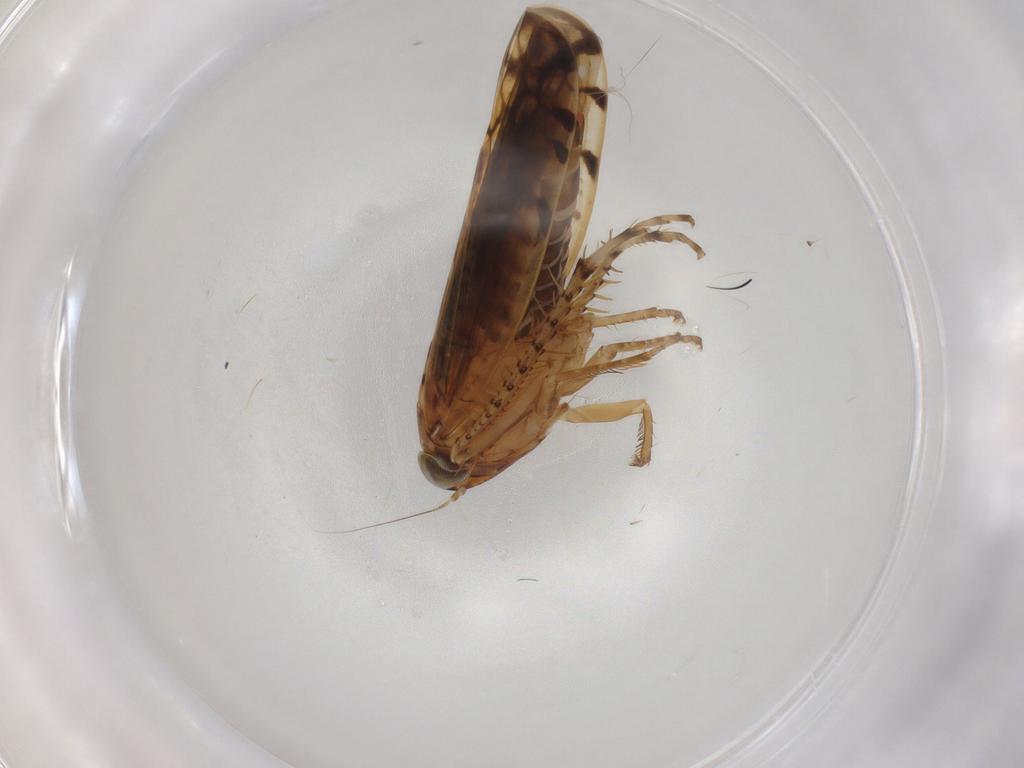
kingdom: Animalia
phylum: Arthropoda
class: Insecta
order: Hemiptera
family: Cicadellidae
